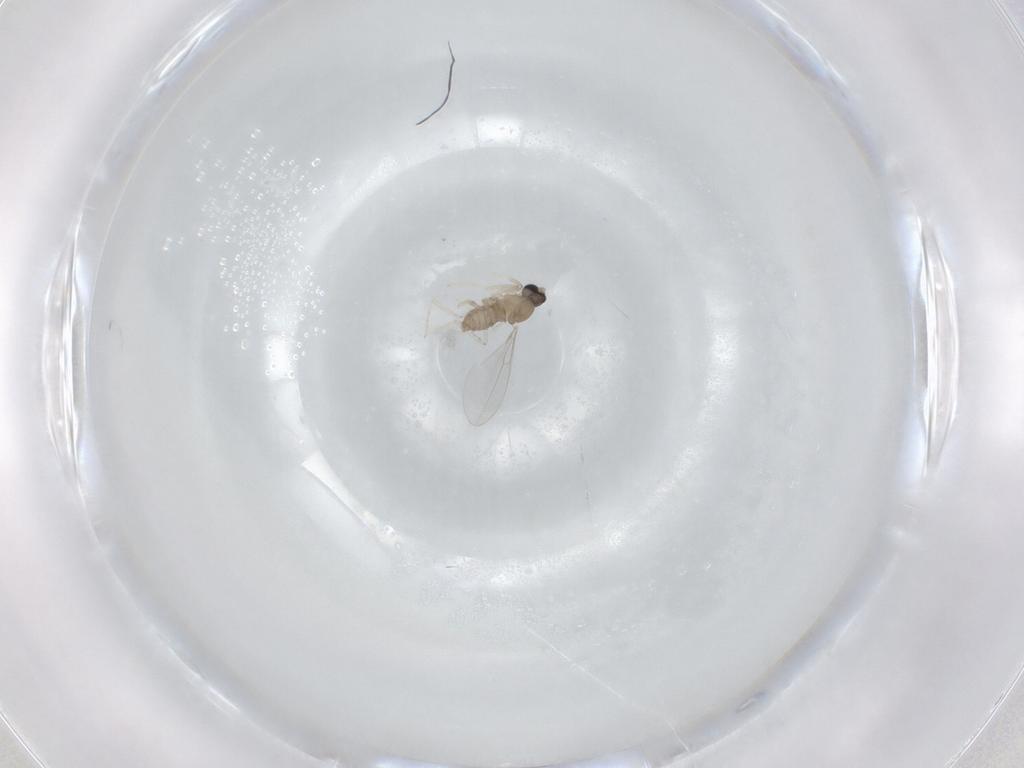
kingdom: Animalia
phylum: Arthropoda
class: Insecta
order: Diptera
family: Cecidomyiidae
